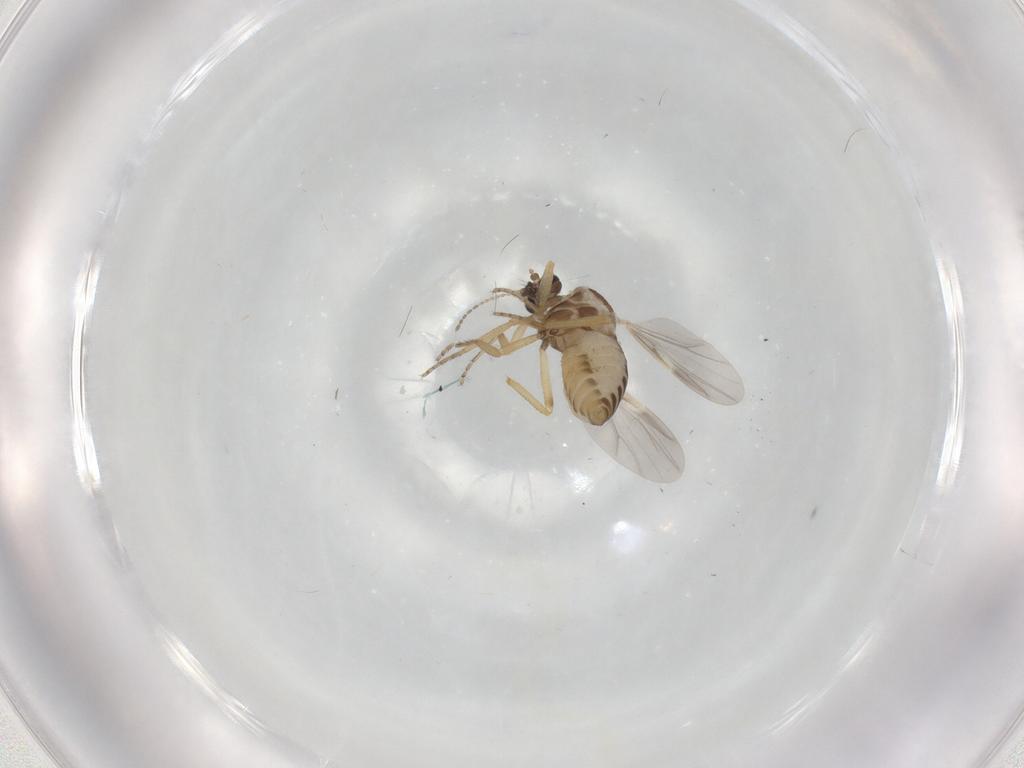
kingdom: Animalia
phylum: Arthropoda
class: Insecta
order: Diptera
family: Ceratopogonidae
